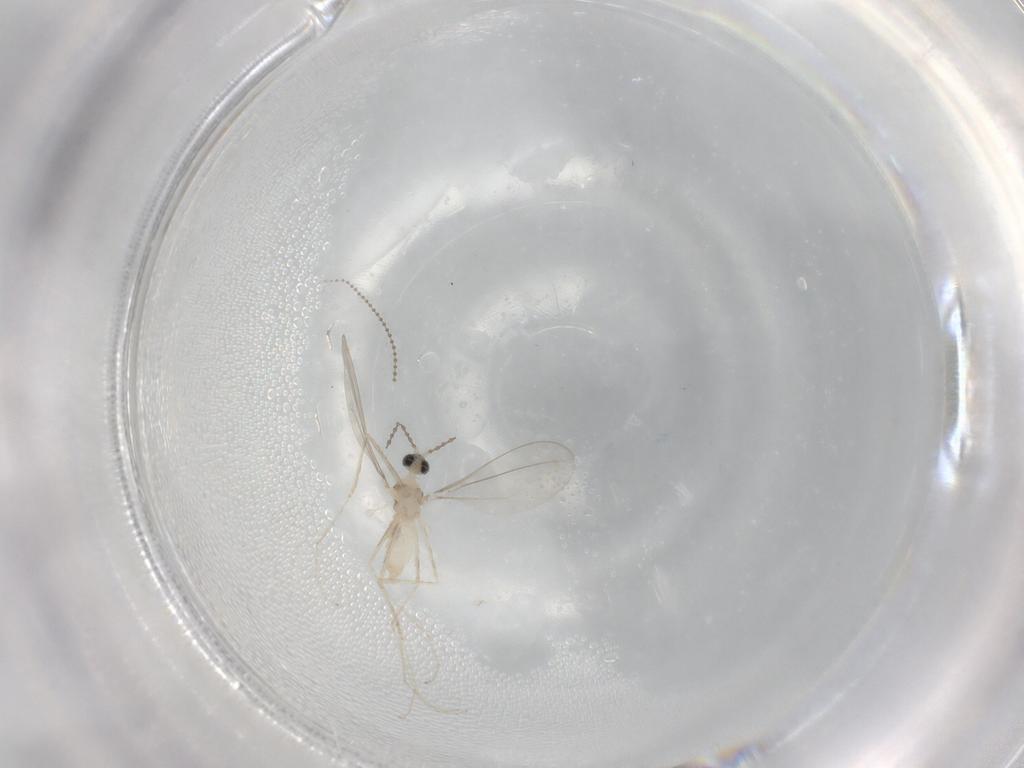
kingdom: Animalia
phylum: Arthropoda
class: Insecta
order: Diptera
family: Cecidomyiidae
